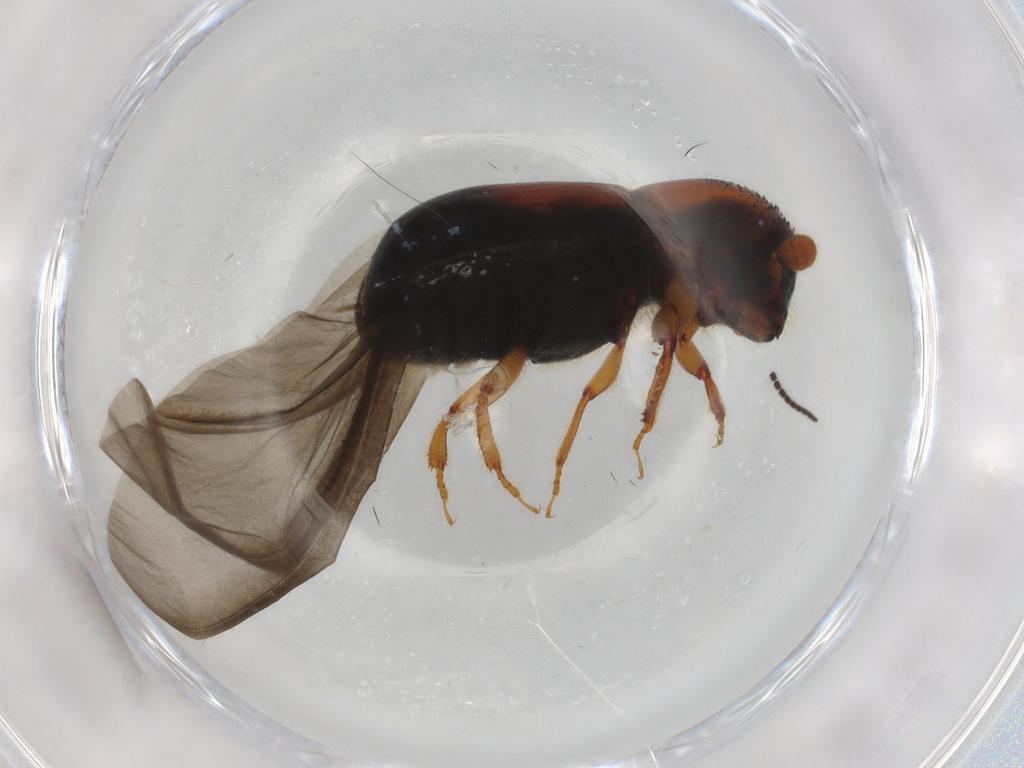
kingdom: Animalia
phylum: Arthropoda
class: Insecta
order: Coleoptera
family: Curculionidae
